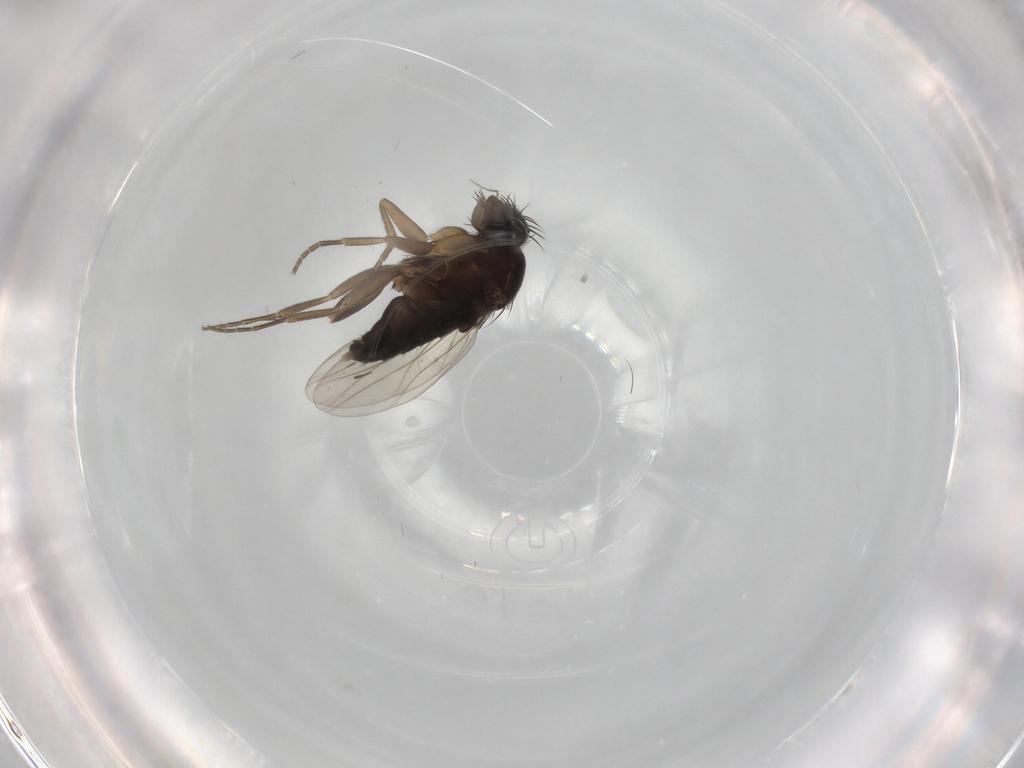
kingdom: Animalia
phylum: Arthropoda
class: Insecta
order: Diptera
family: Phoridae
